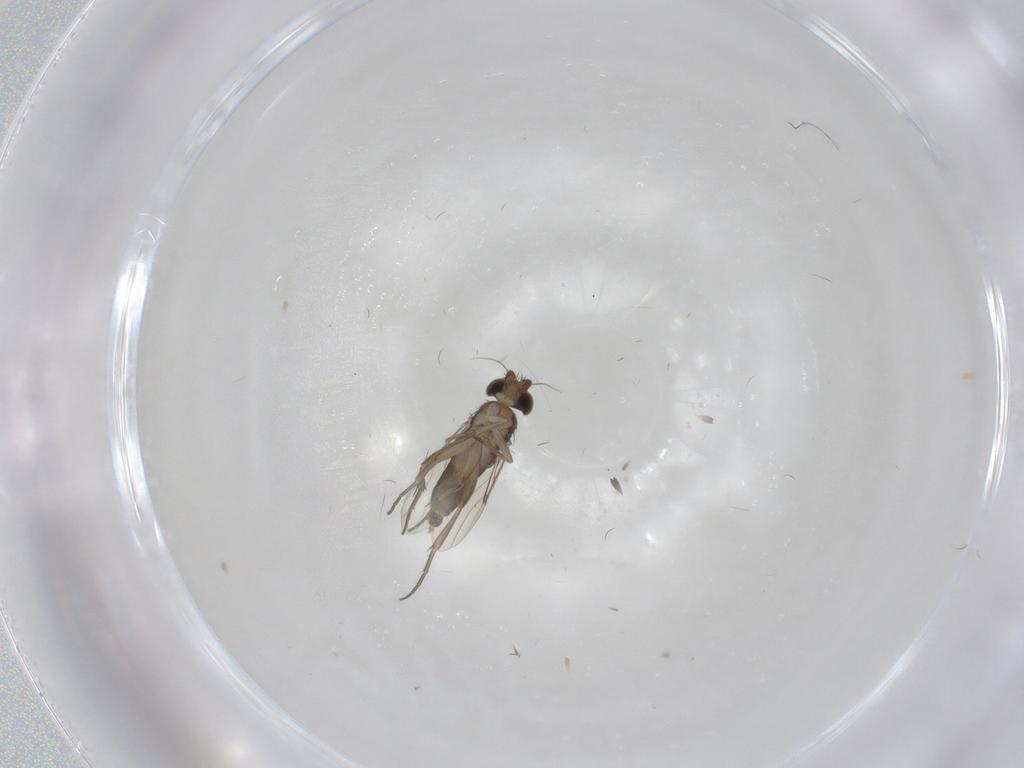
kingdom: Animalia
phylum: Arthropoda
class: Insecta
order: Diptera
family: Phoridae
